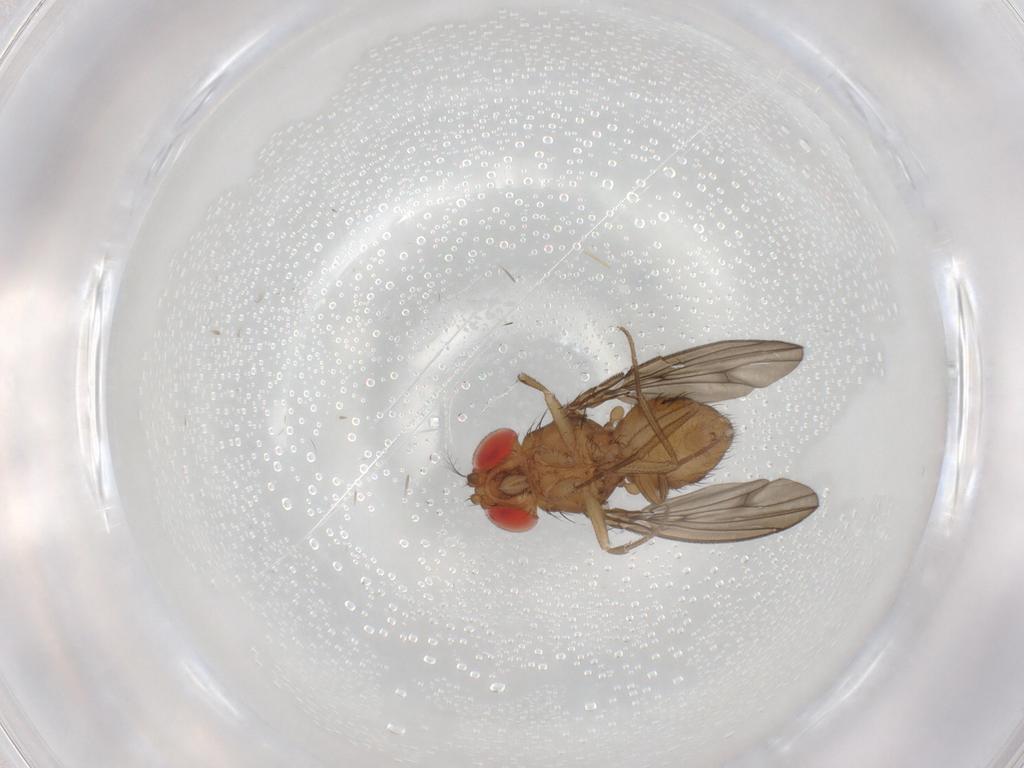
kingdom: Animalia
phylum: Arthropoda
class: Insecta
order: Diptera
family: Drosophilidae
